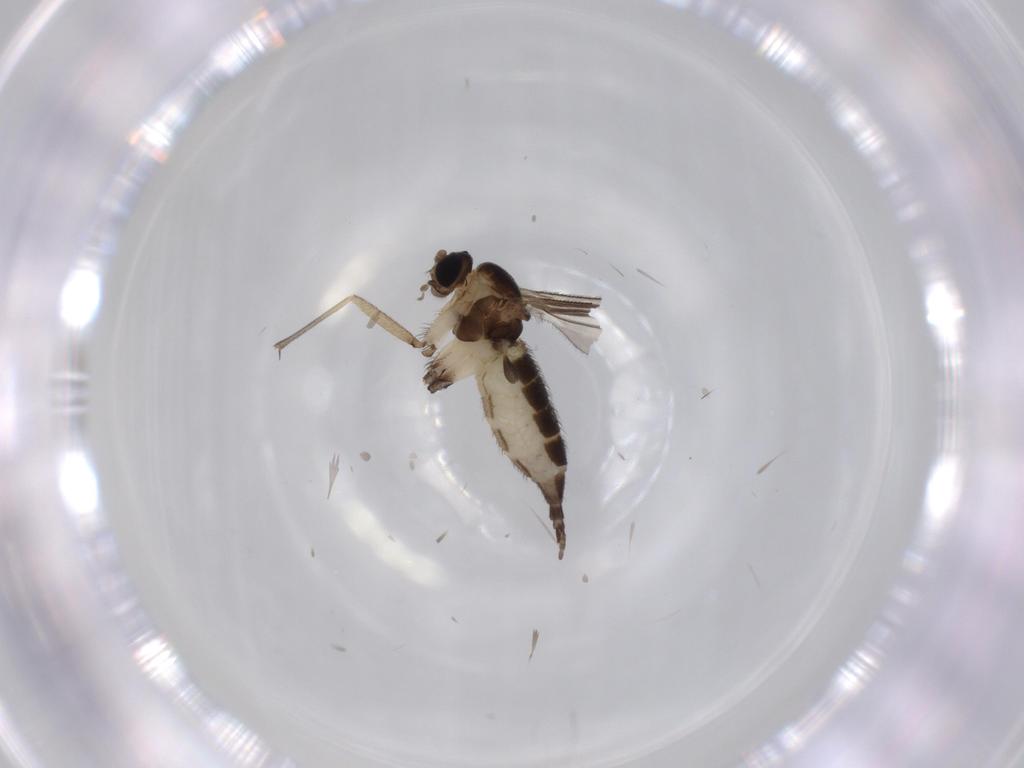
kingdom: Animalia
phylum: Arthropoda
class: Insecta
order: Diptera
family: Sciaridae
